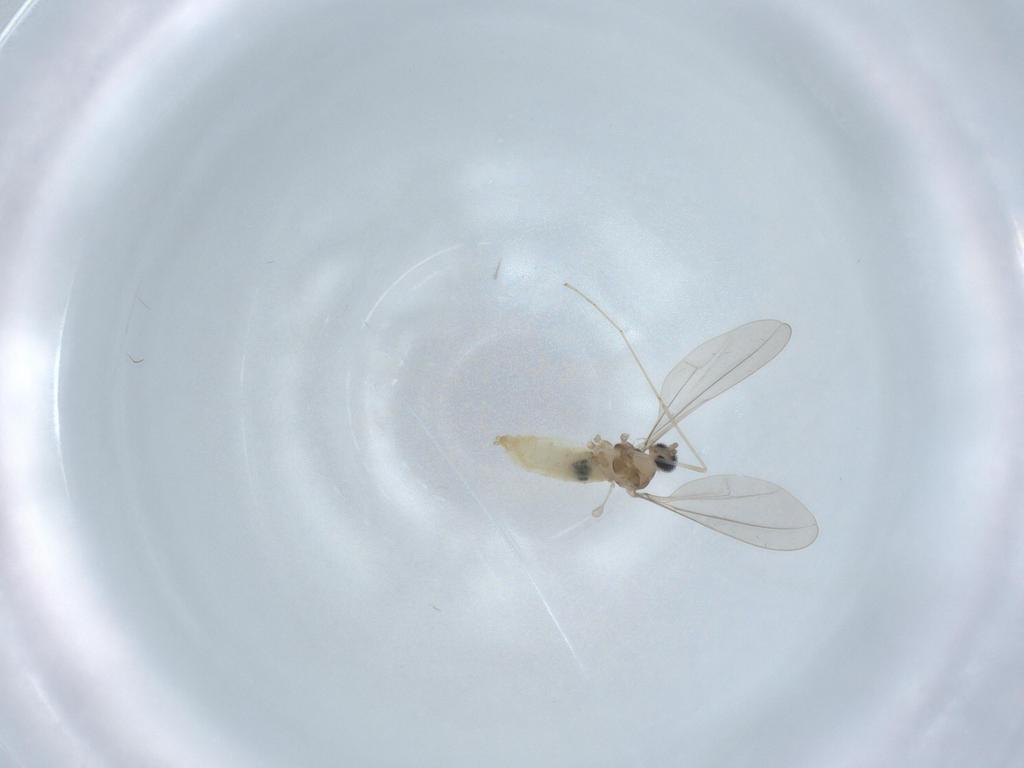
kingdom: Animalia
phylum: Arthropoda
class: Insecta
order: Diptera
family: Cecidomyiidae
